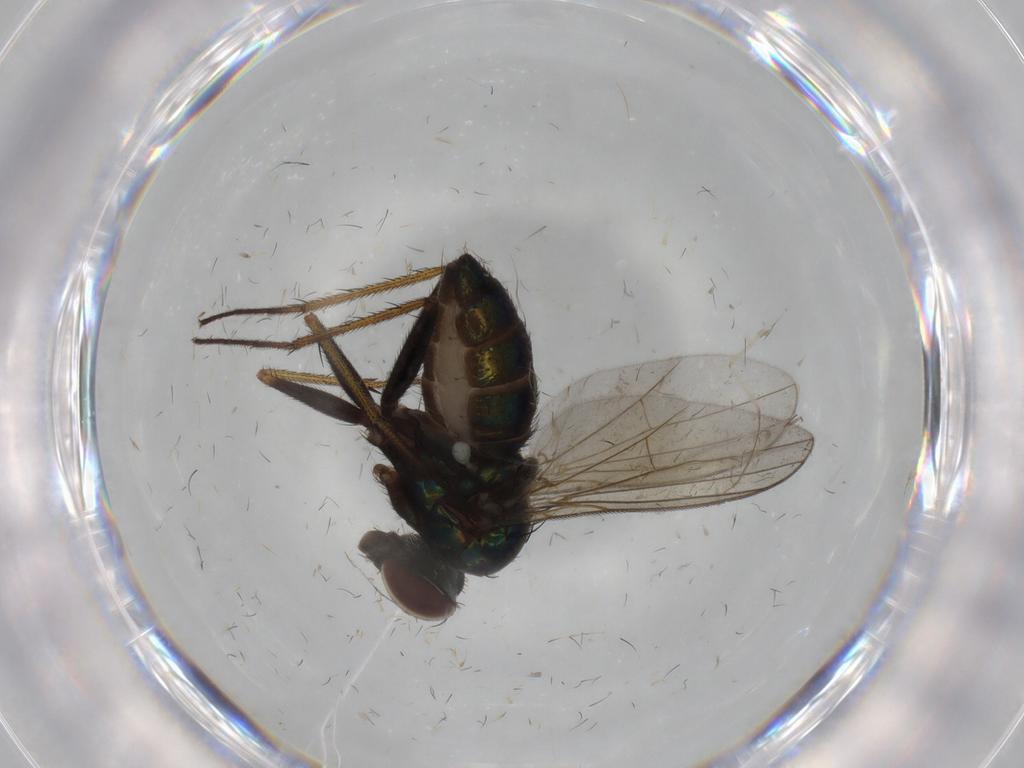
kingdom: Animalia
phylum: Arthropoda
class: Insecta
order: Diptera
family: Dolichopodidae
